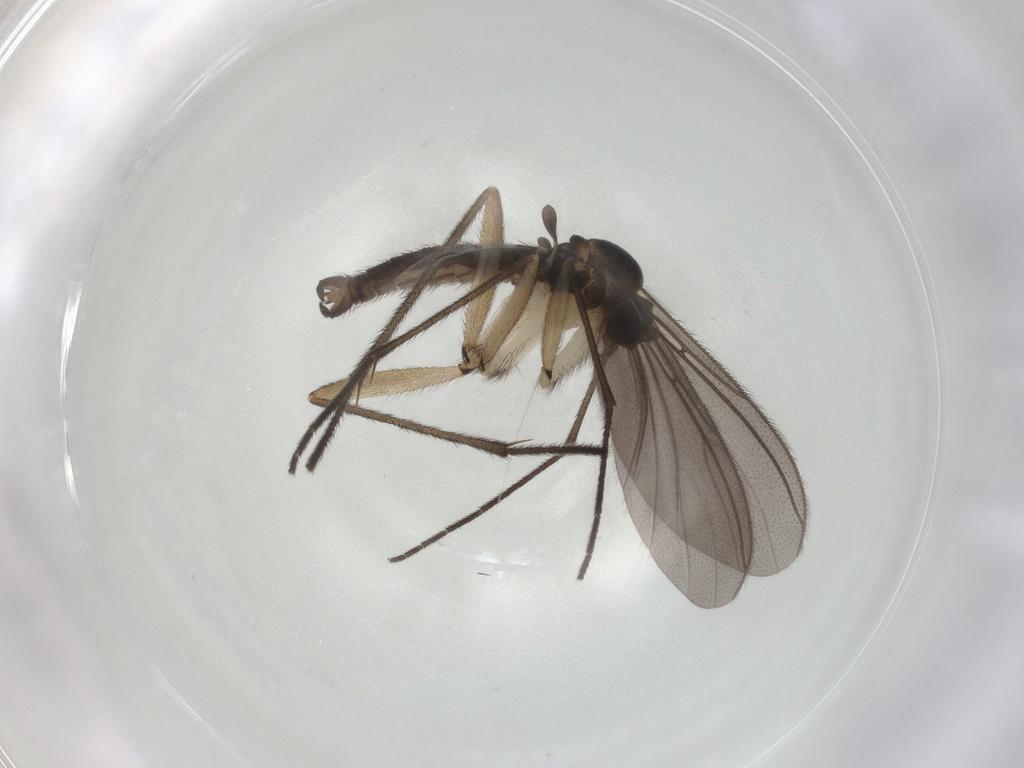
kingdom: Animalia
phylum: Arthropoda
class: Insecta
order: Diptera
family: Sciaridae
